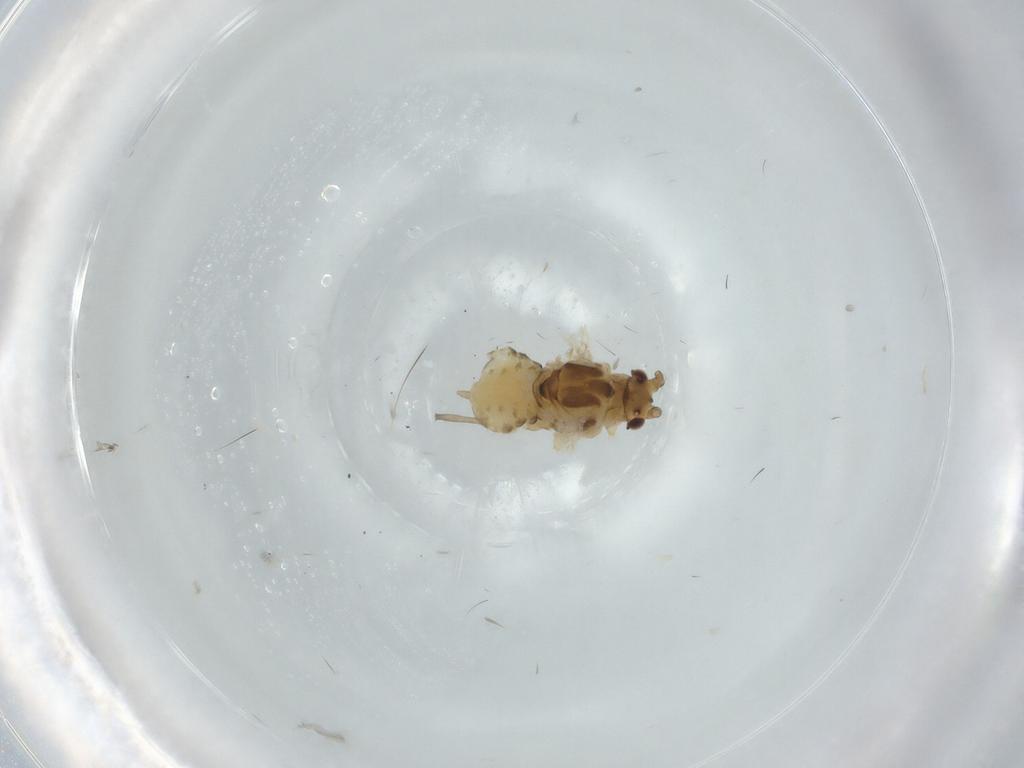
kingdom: Animalia
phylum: Arthropoda
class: Insecta
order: Hemiptera
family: Aphididae
